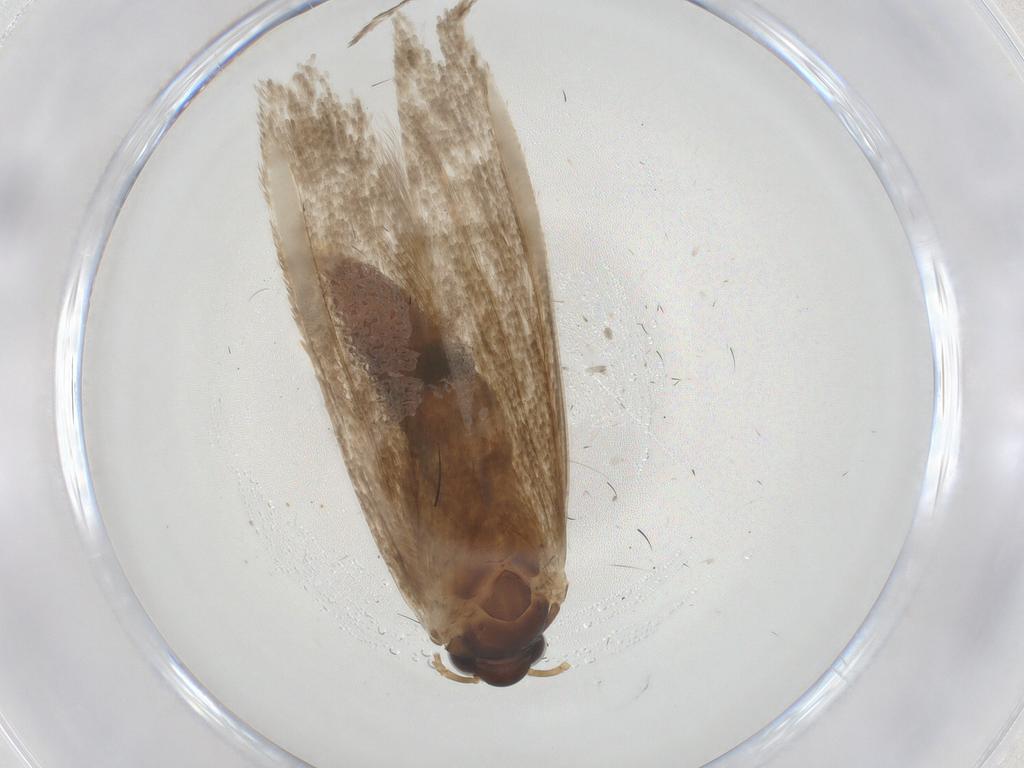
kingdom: Animalia
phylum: Arthropoda
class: Insecta
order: Lepidoptera
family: Coleophoridae
